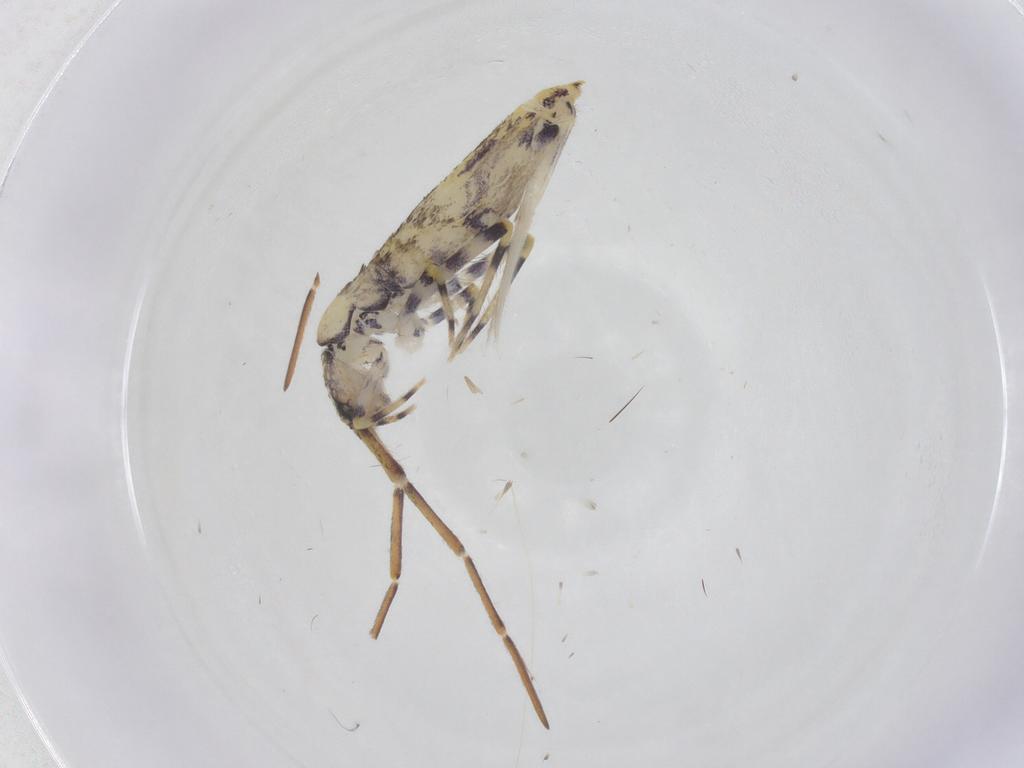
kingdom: Animalia
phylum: Arthropoda
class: Collembola
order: Entomobryomorpha
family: Entomobryidae
